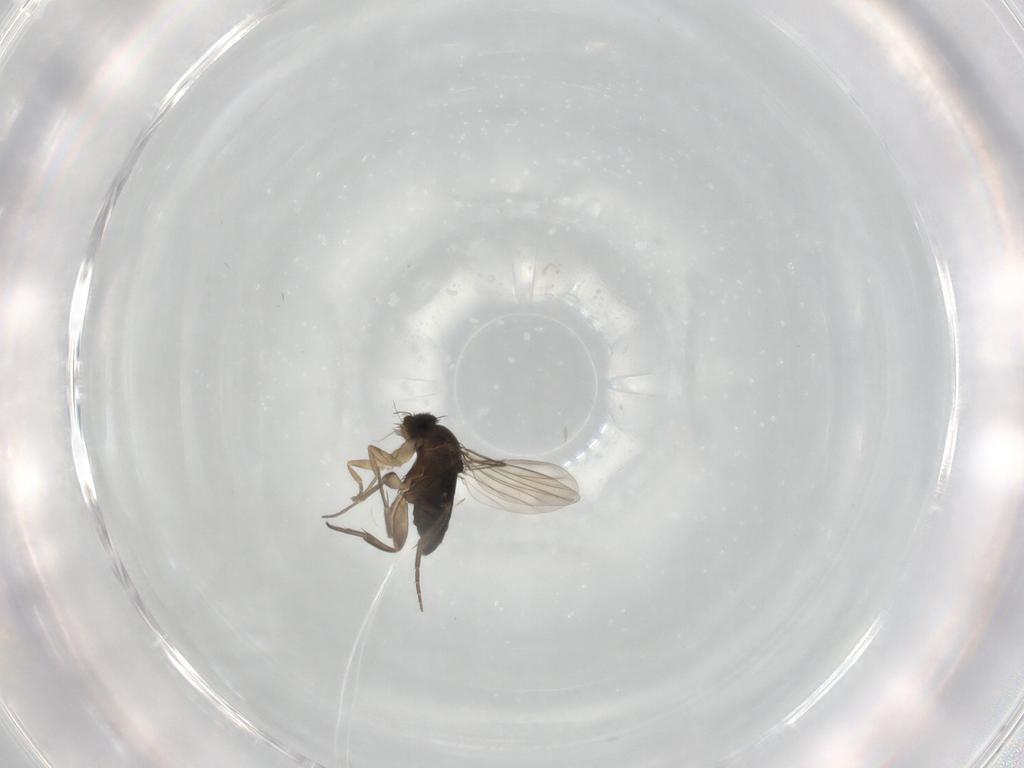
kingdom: Animalia
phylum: Arthropoda
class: Insecta
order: Diptera
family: Phoridae
